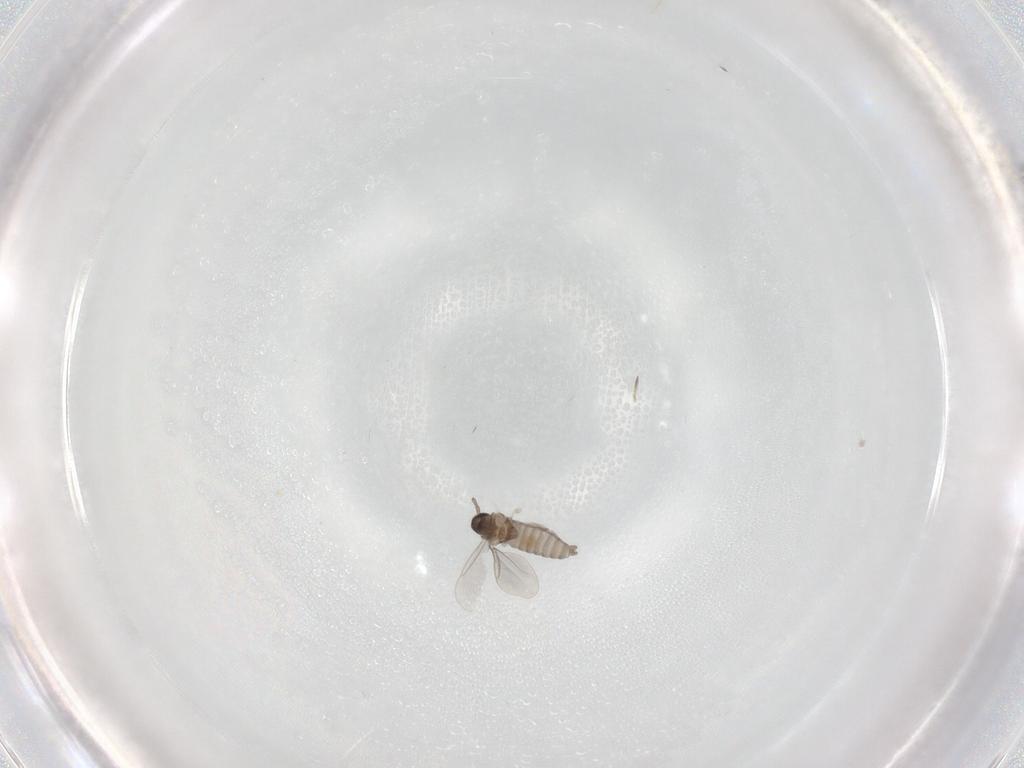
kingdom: Animalia
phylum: Arthropoda
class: Insecta
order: Diptera
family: Cecidomyiidae
